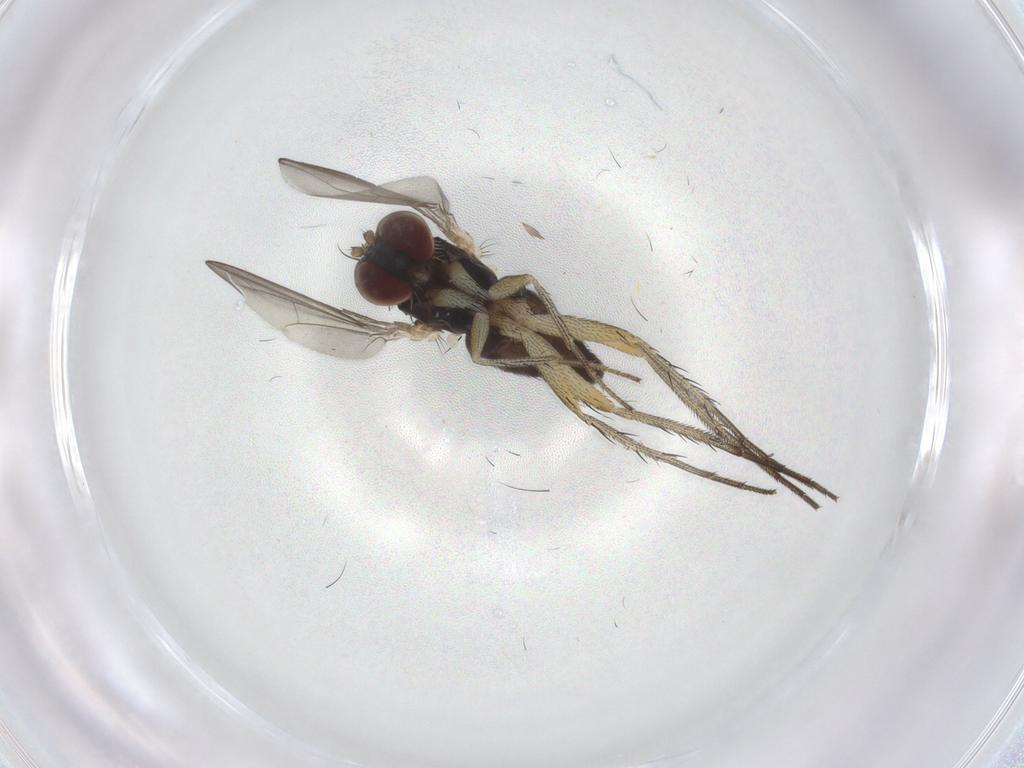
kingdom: Animalia
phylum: Arthropoda
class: Insecta
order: Diptera
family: Dolichopodidae
